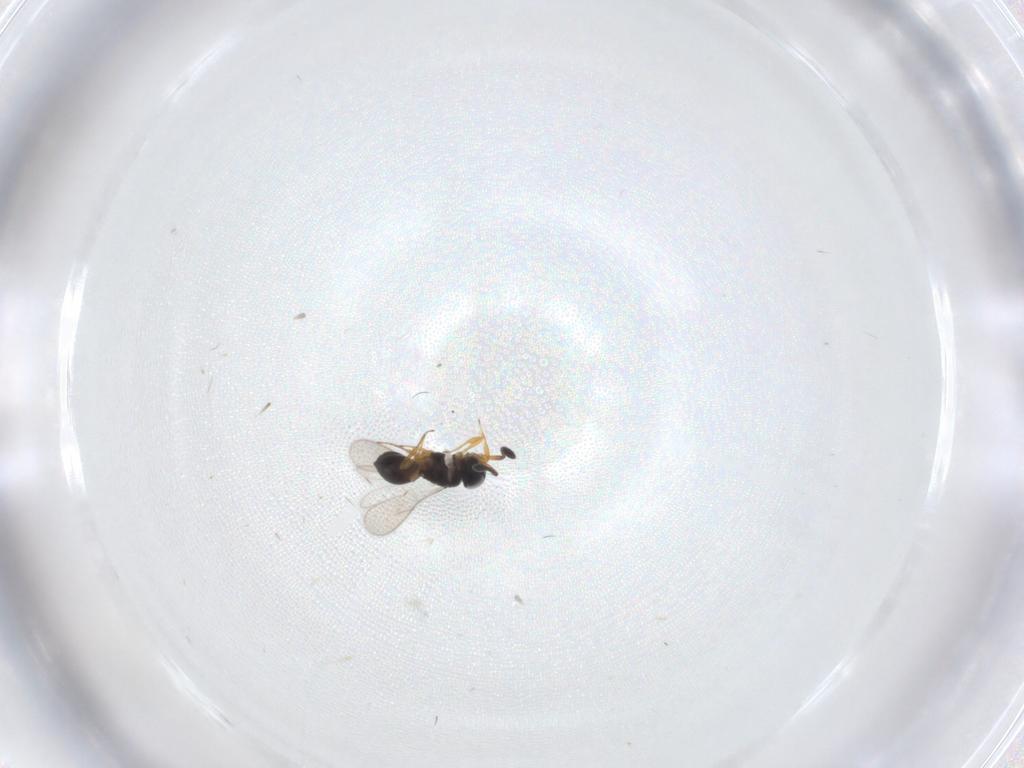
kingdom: Animalia
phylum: Arthropoda
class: Insecta
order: Hymenoptera
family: Scelionidae
